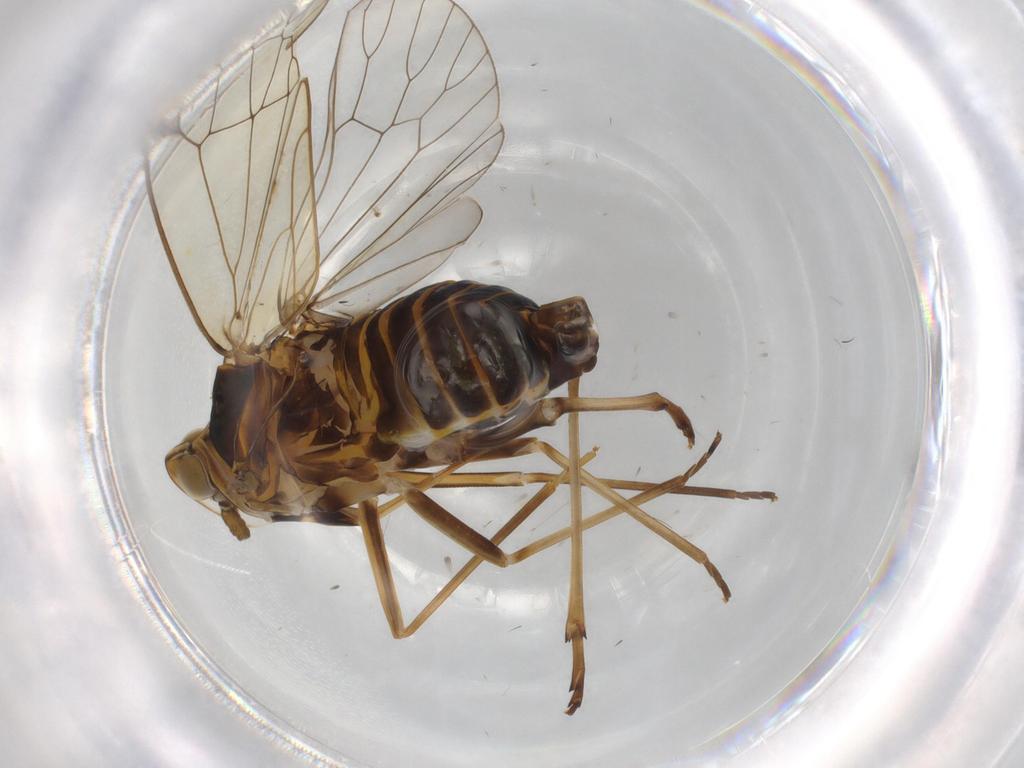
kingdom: Animalia
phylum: Arthropoda
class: Insecta
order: Hemiptera
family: Kinnaridae
